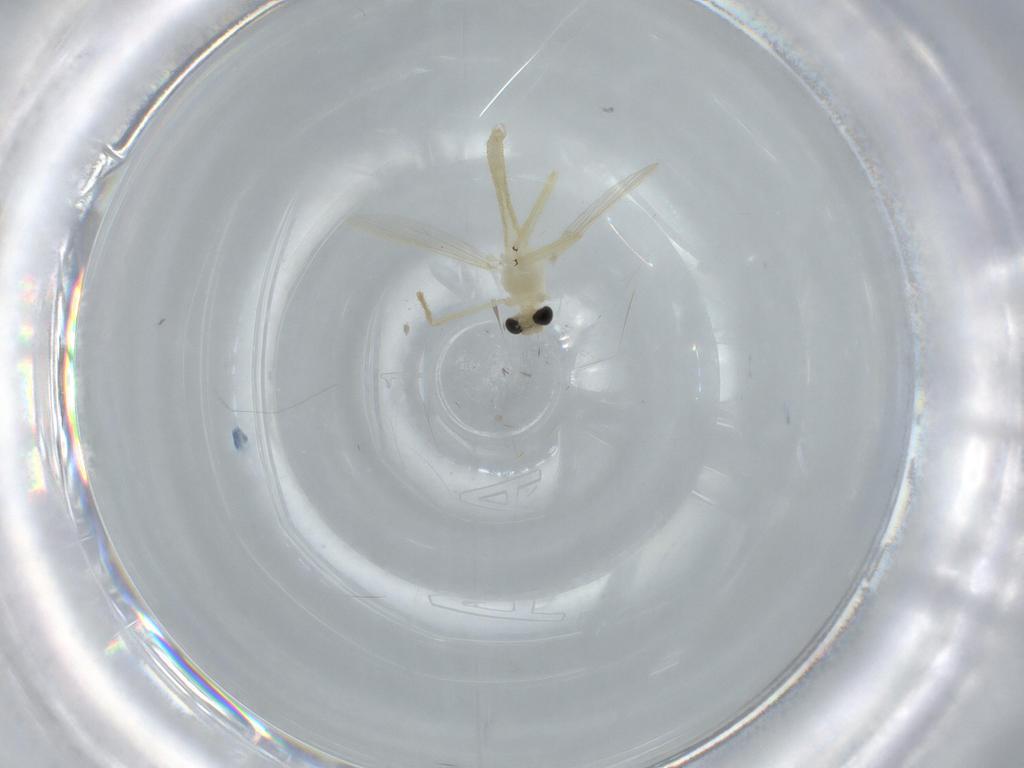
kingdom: Animalia
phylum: Arthropoda
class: Insecta
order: Diptera
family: Chironomidae
